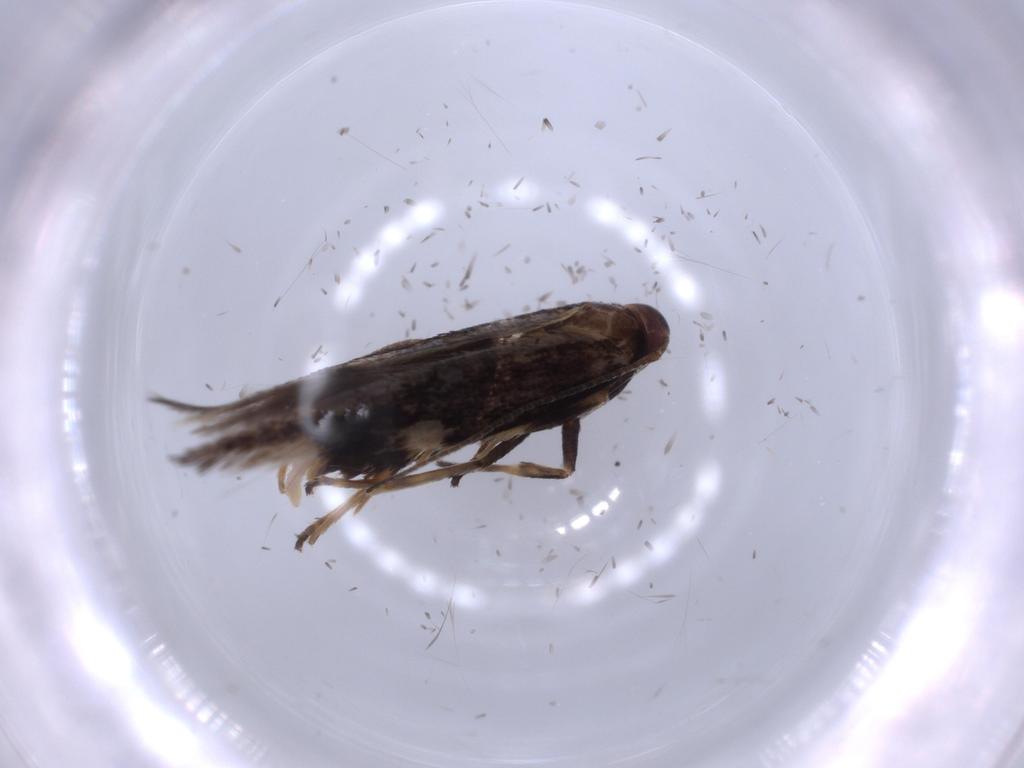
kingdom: Animalia
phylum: Arthropoda
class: Insecta
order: Lepidoptera
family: Cosmopterigidae
